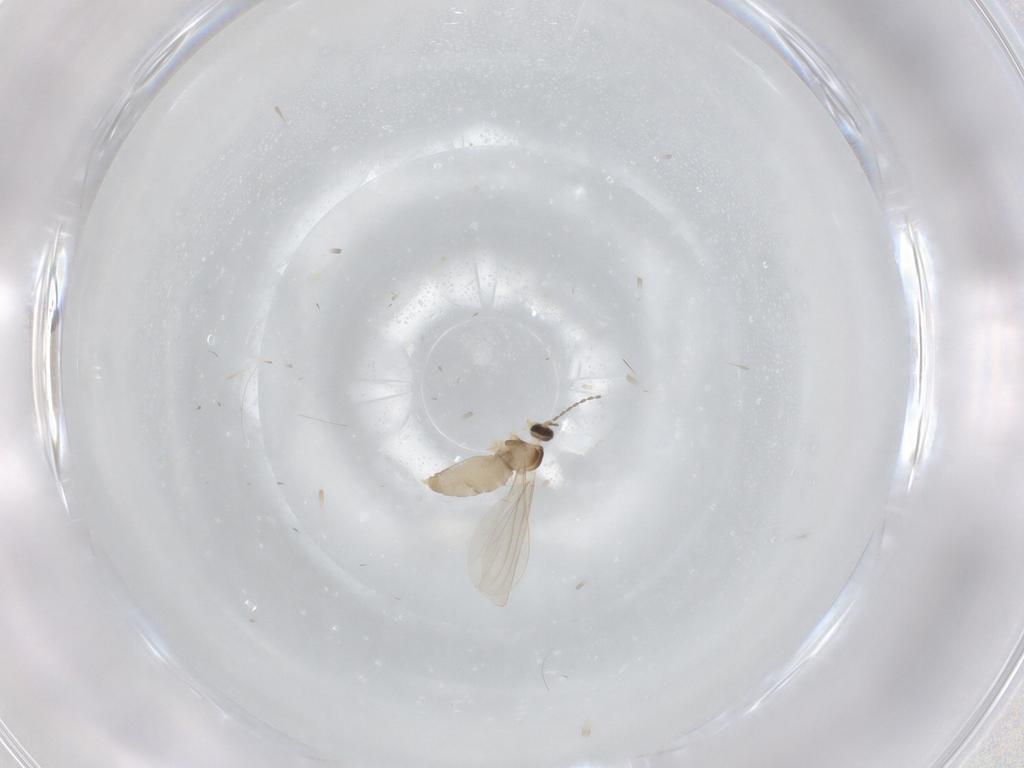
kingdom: Animalia
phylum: Arthropoda
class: Insecta
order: Diptera
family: Cecidomyiidae
